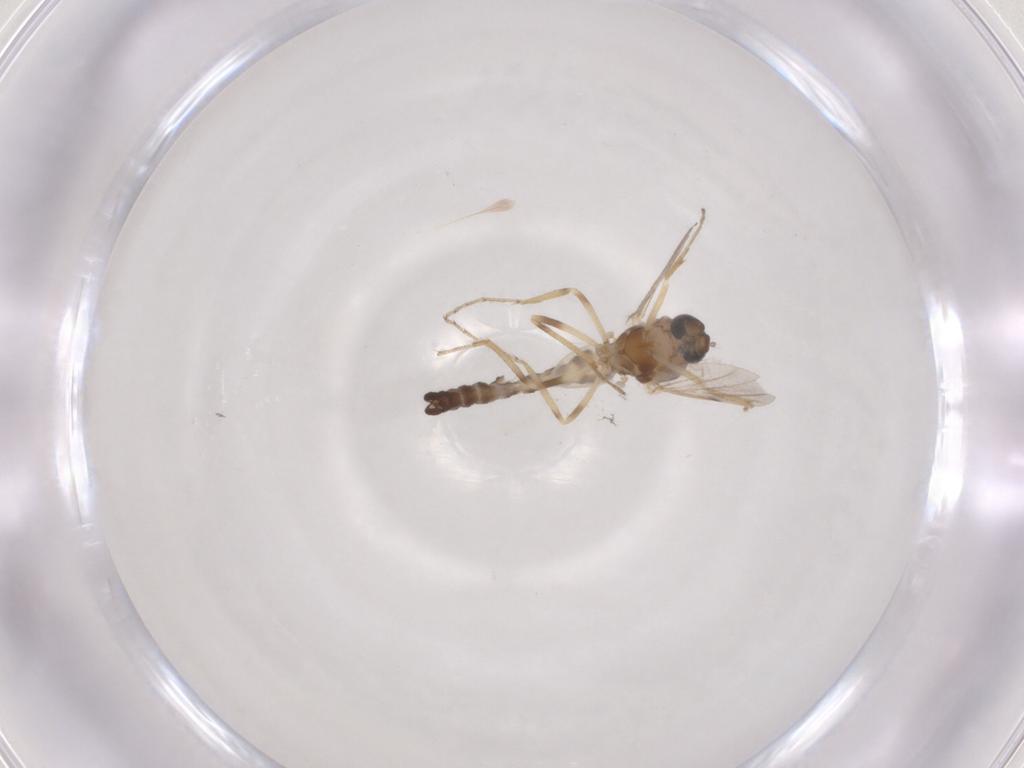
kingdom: Animalia
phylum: Arthropoda
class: Insecta
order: Diptera
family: Ceratopogonidae
